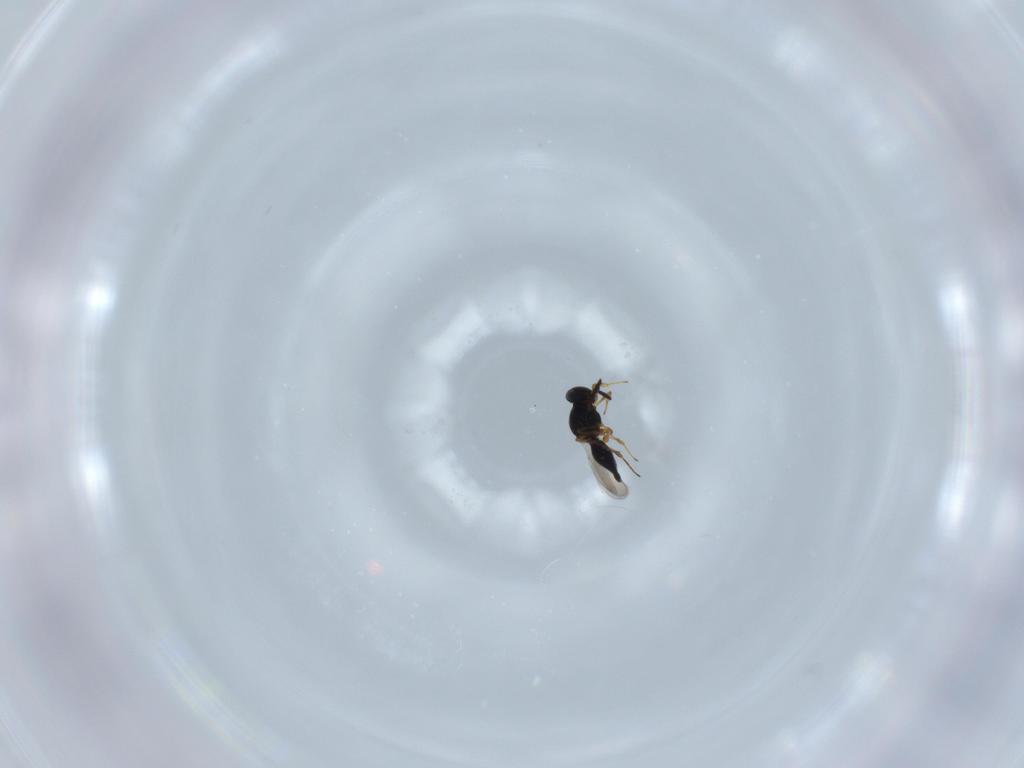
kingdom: Animalia
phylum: Arthropoda
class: Insecta
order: Hymenoptera
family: Platygastridae
